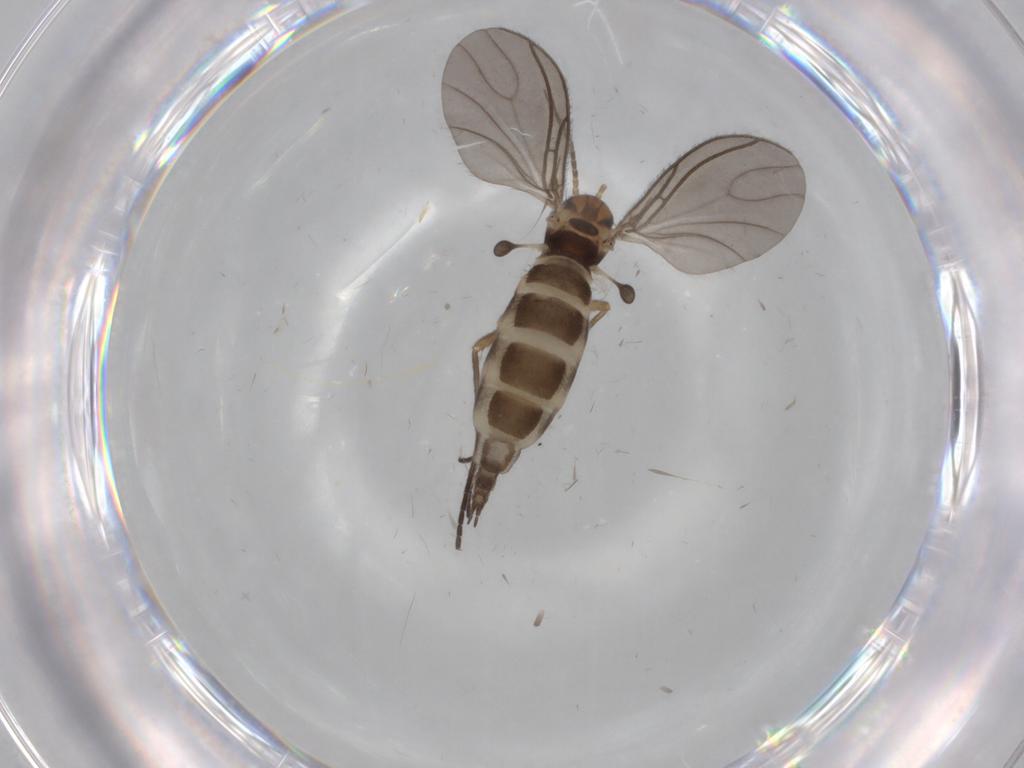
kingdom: Animalia
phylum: Arthropoda
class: Insecta
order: Diptera
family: Sciaridae
